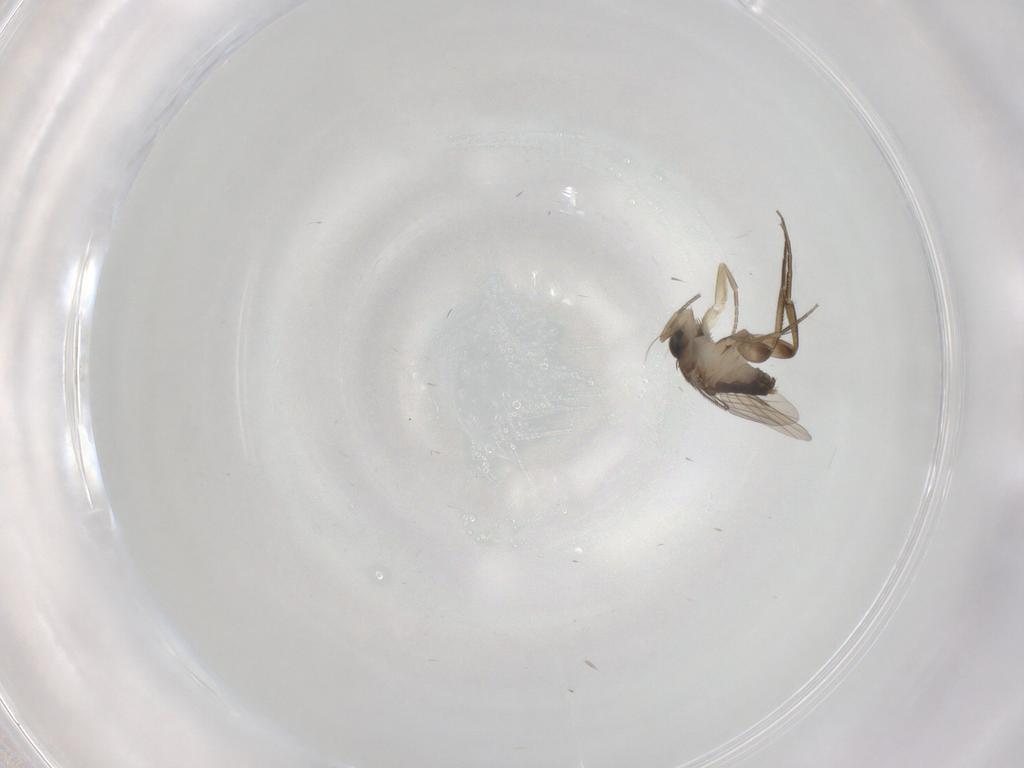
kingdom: Animalia
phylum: Arthropoda
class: Insecta
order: Diptera
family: Phoridae
